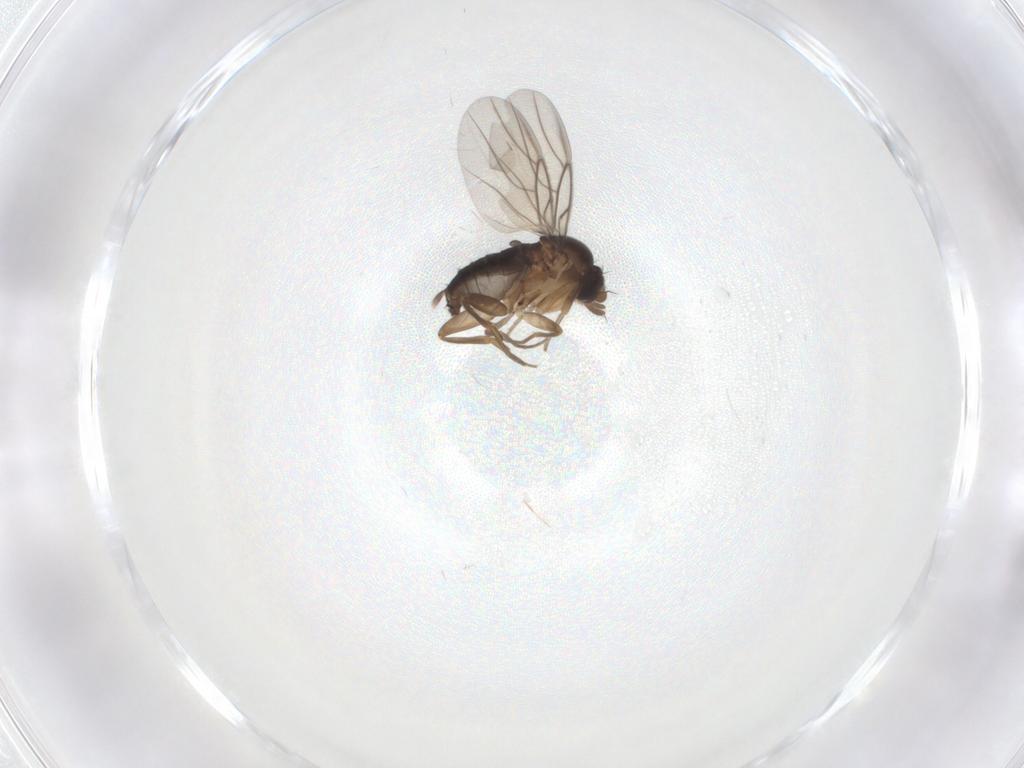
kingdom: Animalia
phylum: Arthropoda
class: Insecta
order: Diptera
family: Phoridae
